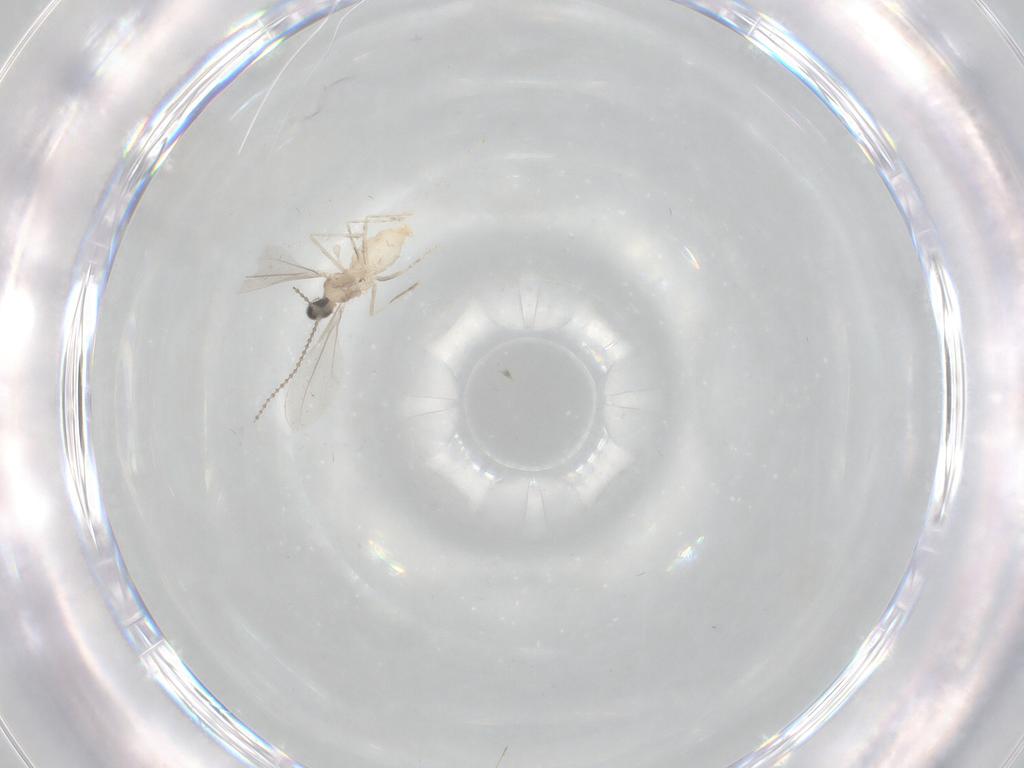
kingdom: Animalia
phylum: Arthropoda
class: Insecta
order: Diptera
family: Cecidomyiidae
